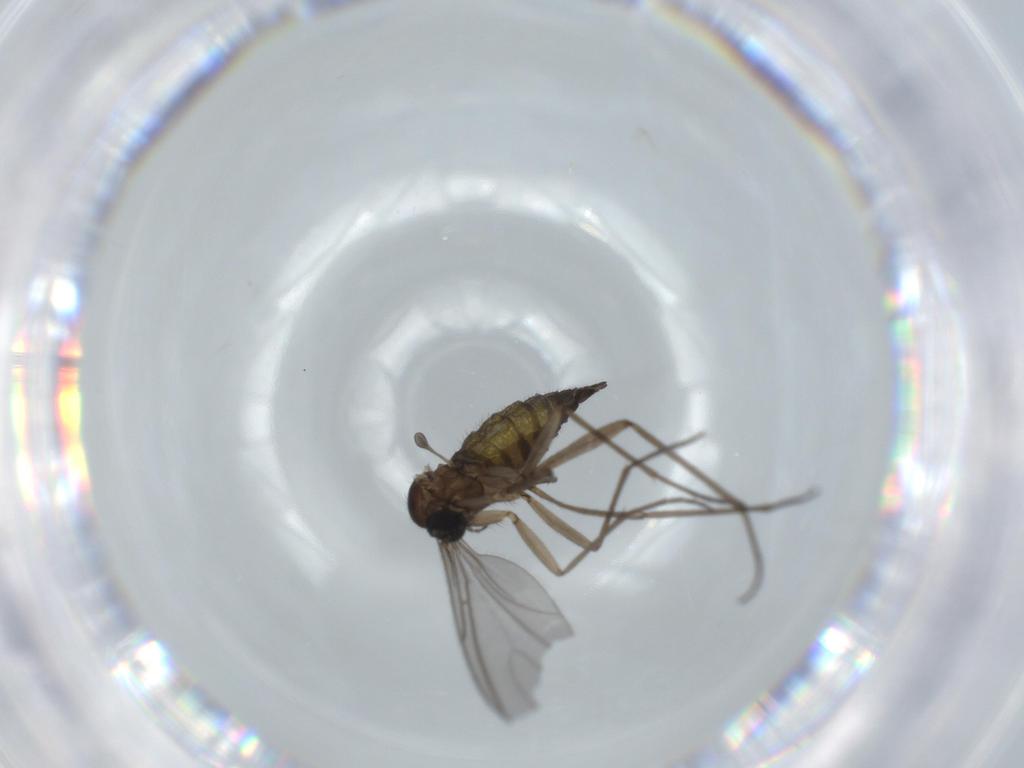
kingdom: Animalia
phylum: Arthropoda
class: Insecta
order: Diptera
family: Sciaridae
